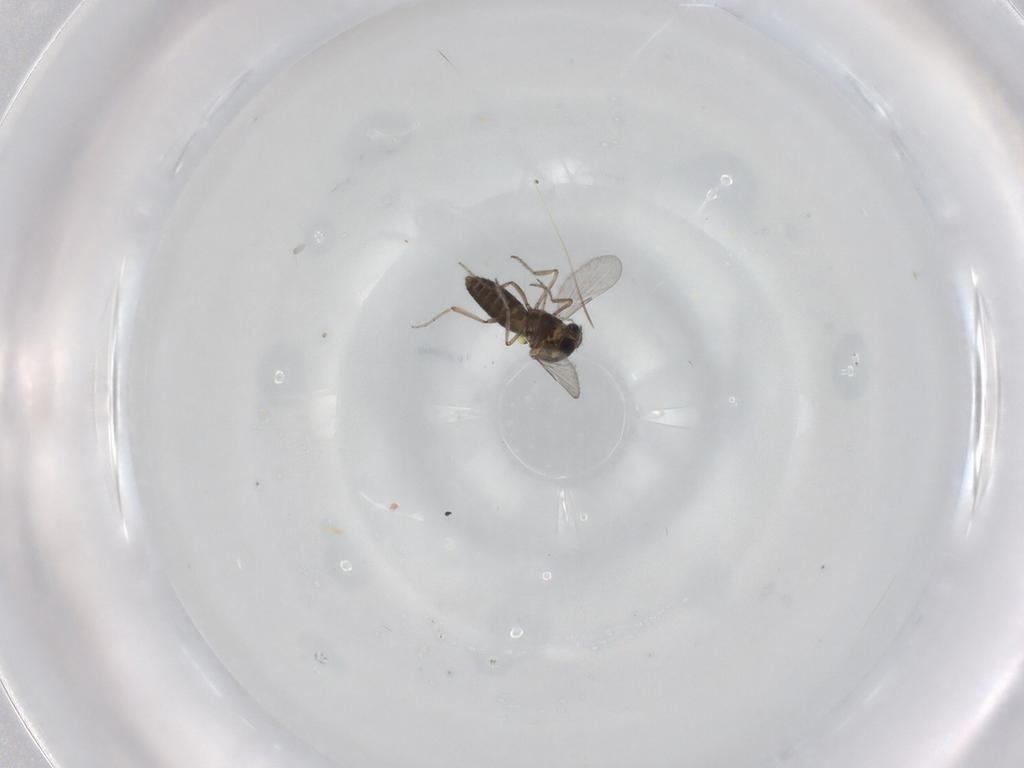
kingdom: Animalia
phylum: Arthropoda
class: Insecta
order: Diptera
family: Ceratopogonidae
